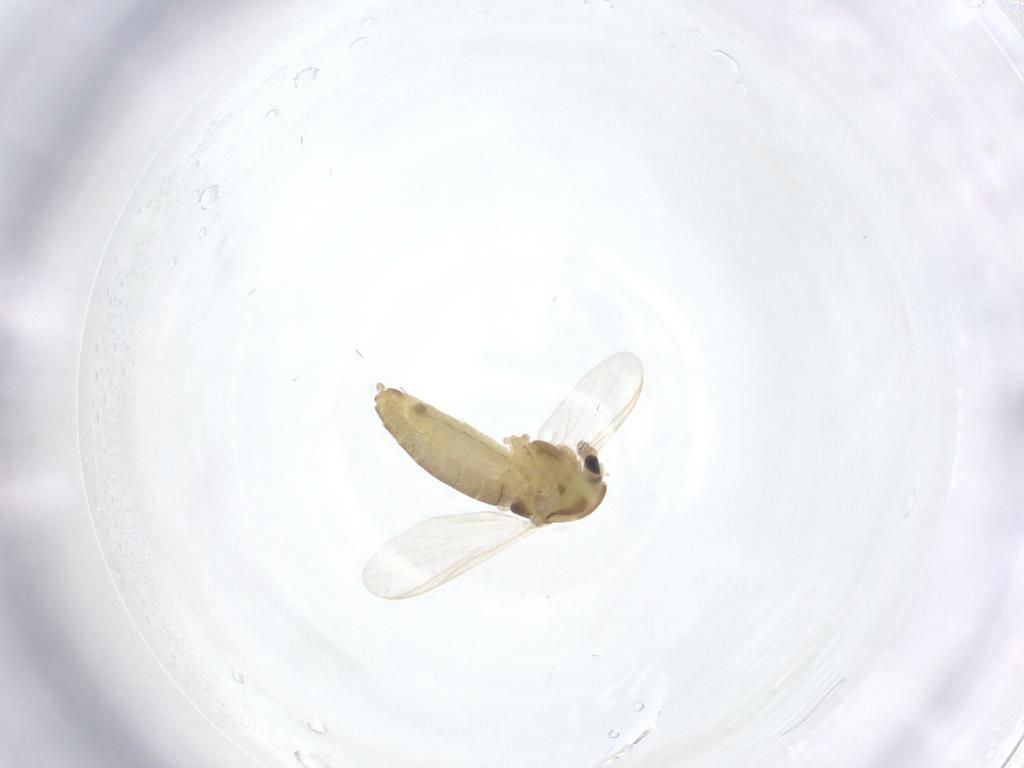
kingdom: Animalia
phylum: Arthropoda
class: Insecta
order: Diptera
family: Chironomidae
